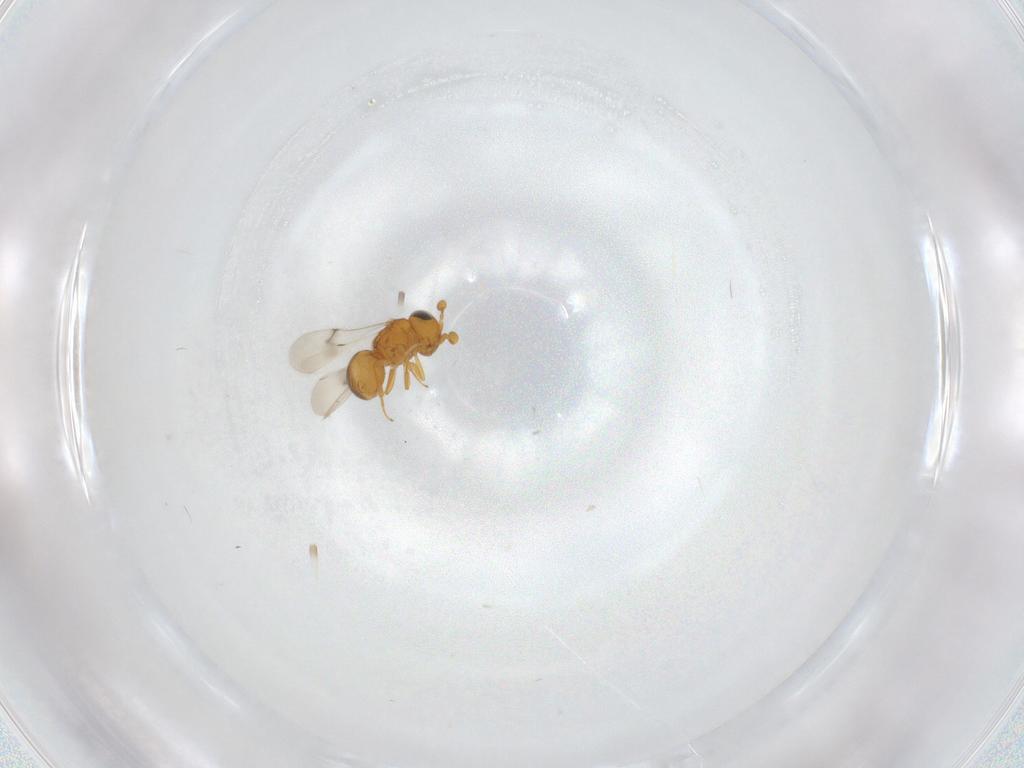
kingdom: Animalia
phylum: Arthropoda
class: Insecta
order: Hymenoptera
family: Scelionidae
